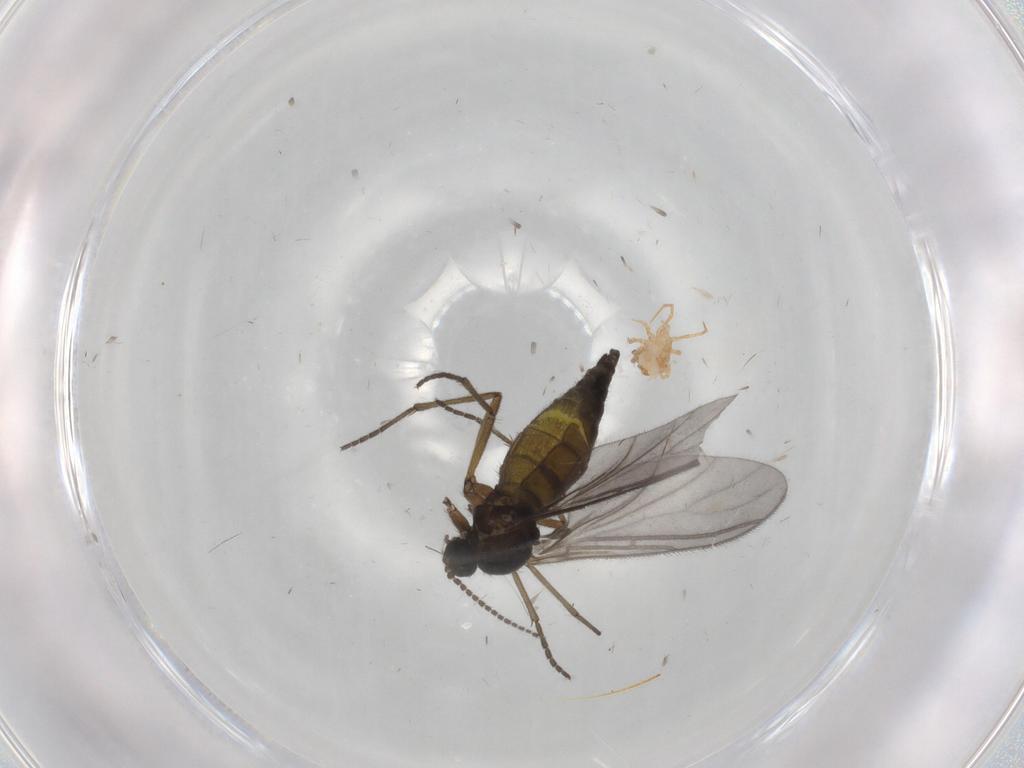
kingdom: Animalia
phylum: Arthropoda
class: Insecta
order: Diptera
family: Sciaridae
